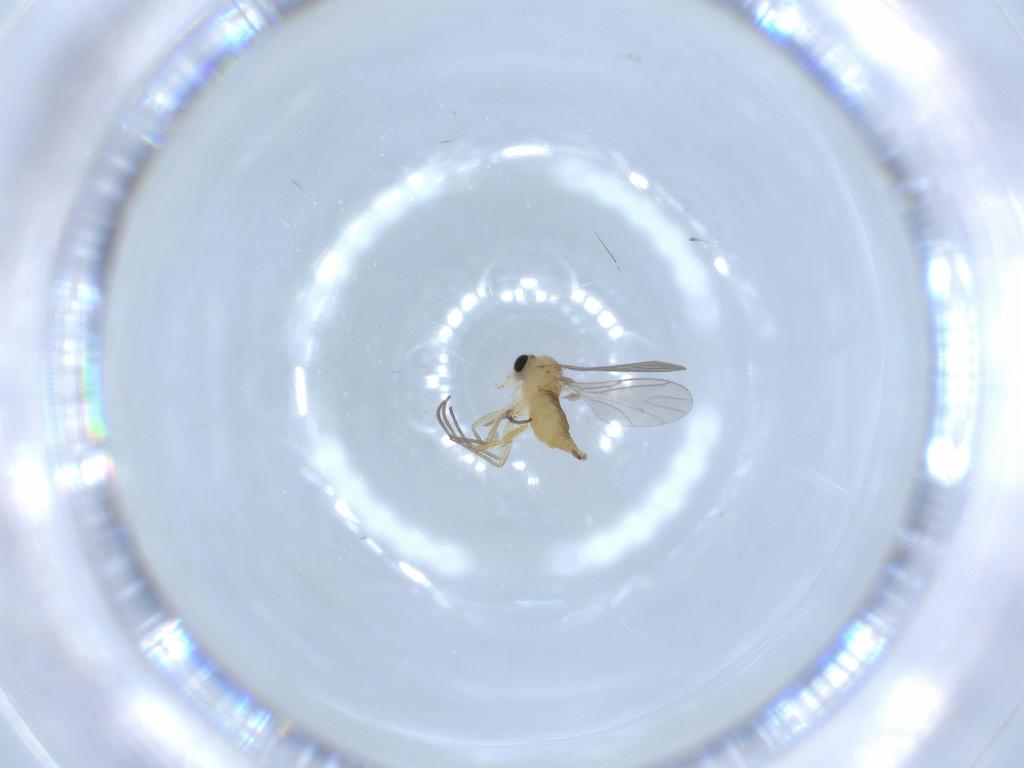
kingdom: Animalia
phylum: Arthropoda
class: Insecta
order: Diptera
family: Sciaridae
